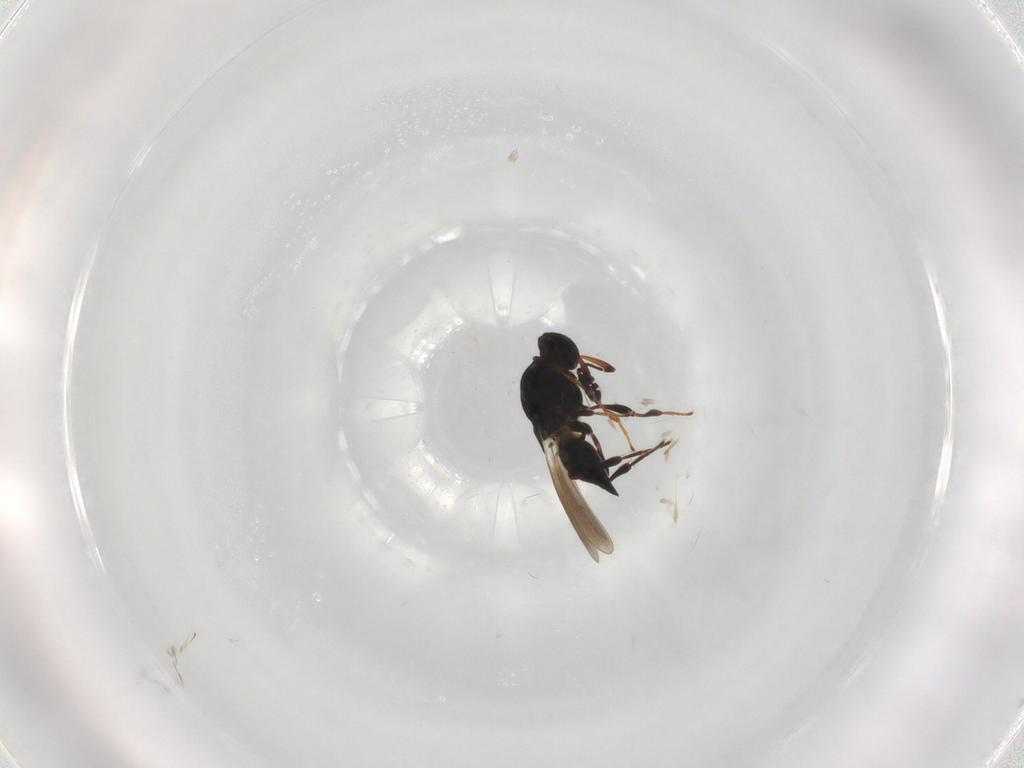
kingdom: Animalia
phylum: Arthropoda
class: Insecta
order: Hymenoptera
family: Platygastridae
